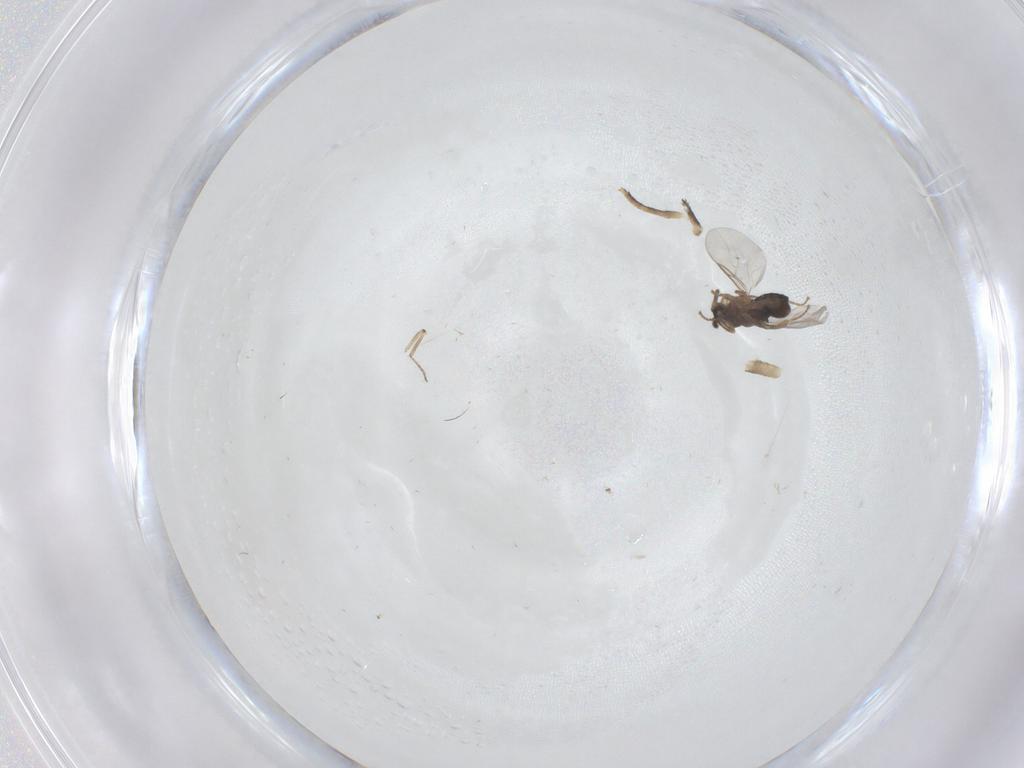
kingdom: Animalia
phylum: Arthropoda
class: Insecta
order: Diptera
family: Scatopsidae
